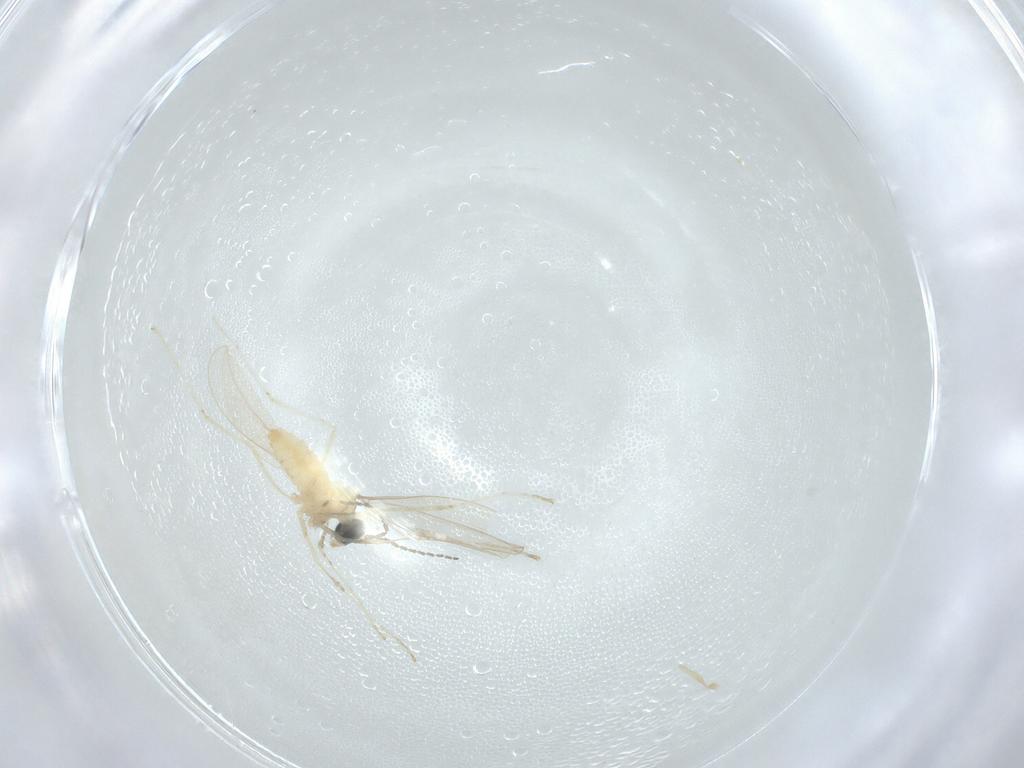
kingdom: Animalia
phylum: Arthropoda
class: Insecta
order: Diptera
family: Cecidomyiidae
